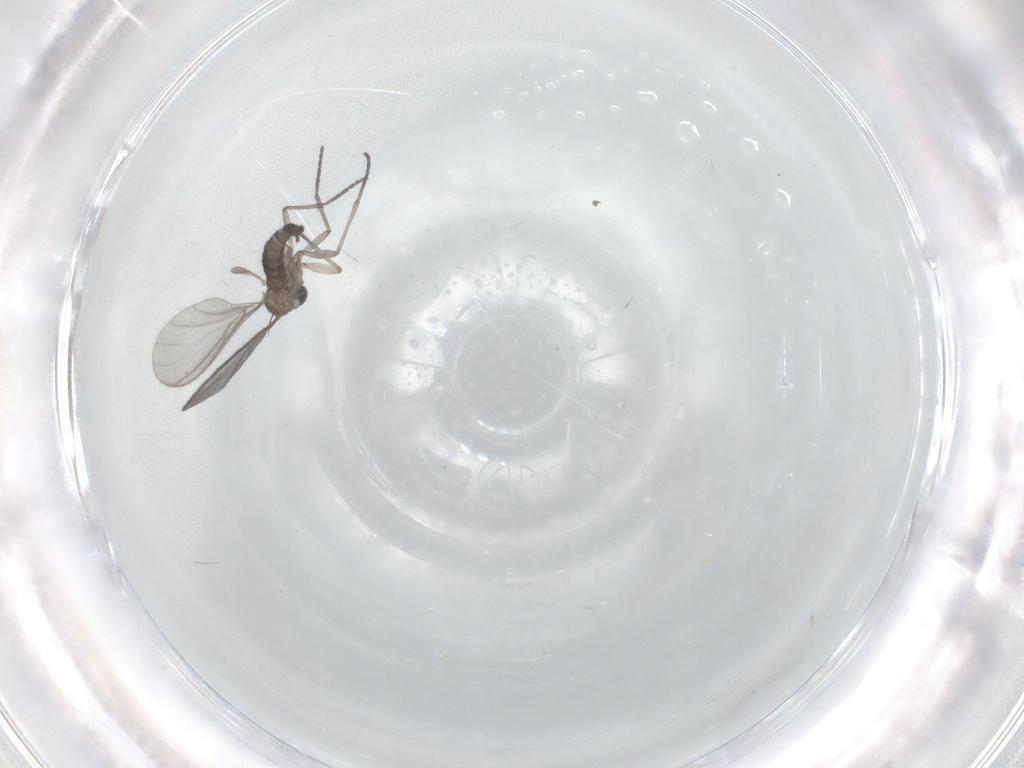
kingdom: Animalia
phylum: Arthropoda
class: Insecta
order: Diptera
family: Sciaridae
